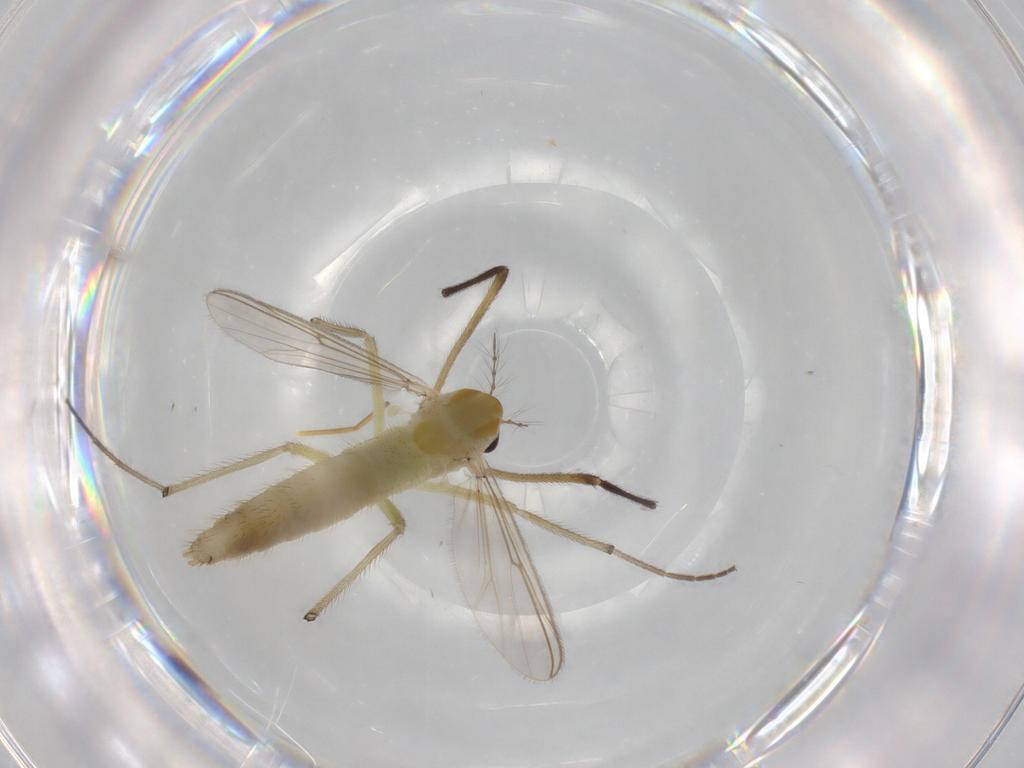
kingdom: Animalia
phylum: Arthropoda
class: Insecta
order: Diptera
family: Chironomidae
